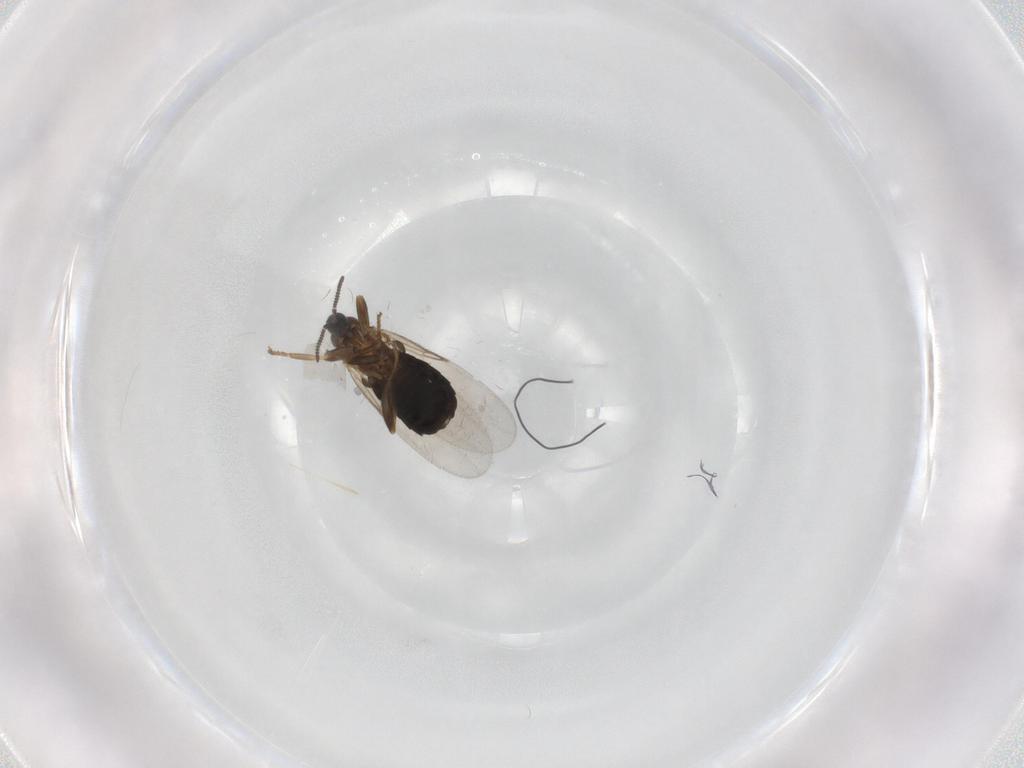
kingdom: Animalia
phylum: Arthropoda
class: Insecta
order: Diptera
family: Scatopsidae
